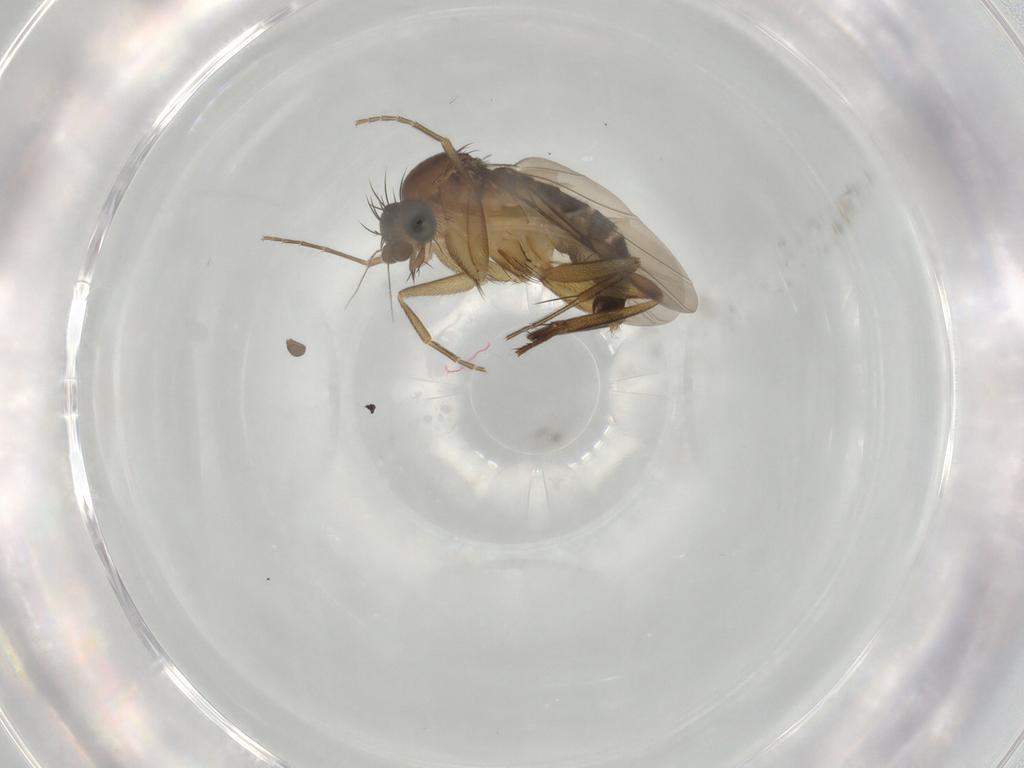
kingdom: Animalia
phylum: Arthropoda
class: Insecta
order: Diptera
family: Phoridae
